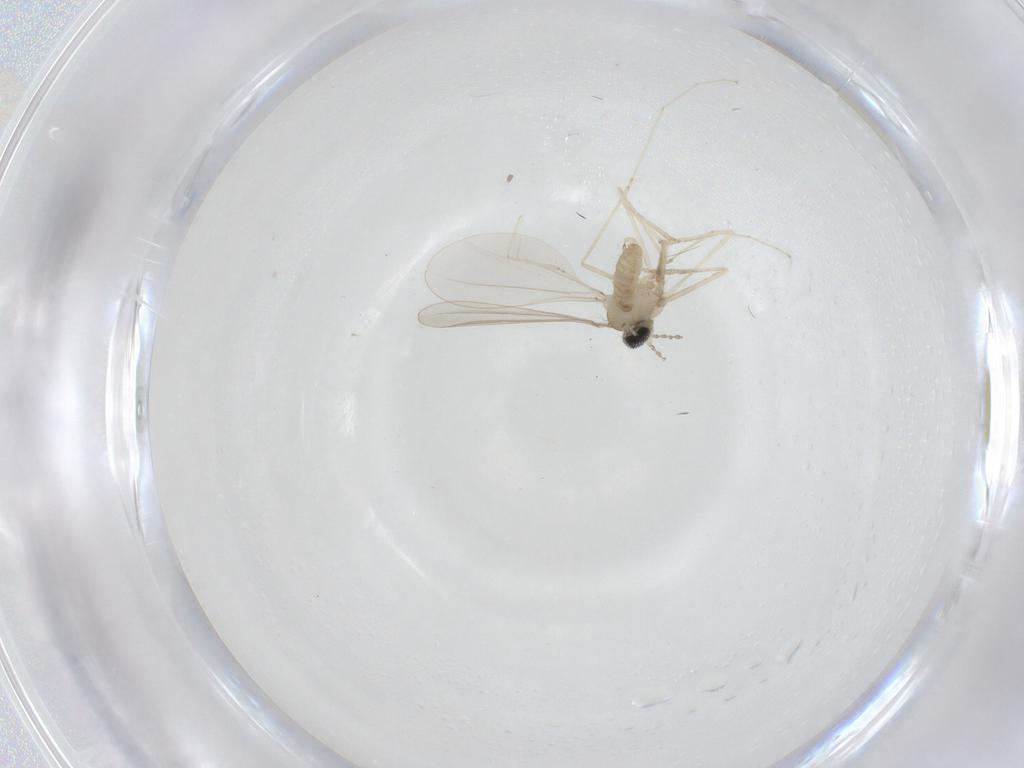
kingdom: Animalia
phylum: Arthropoda
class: Insecta
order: Diptera
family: Cecidomyiidae
